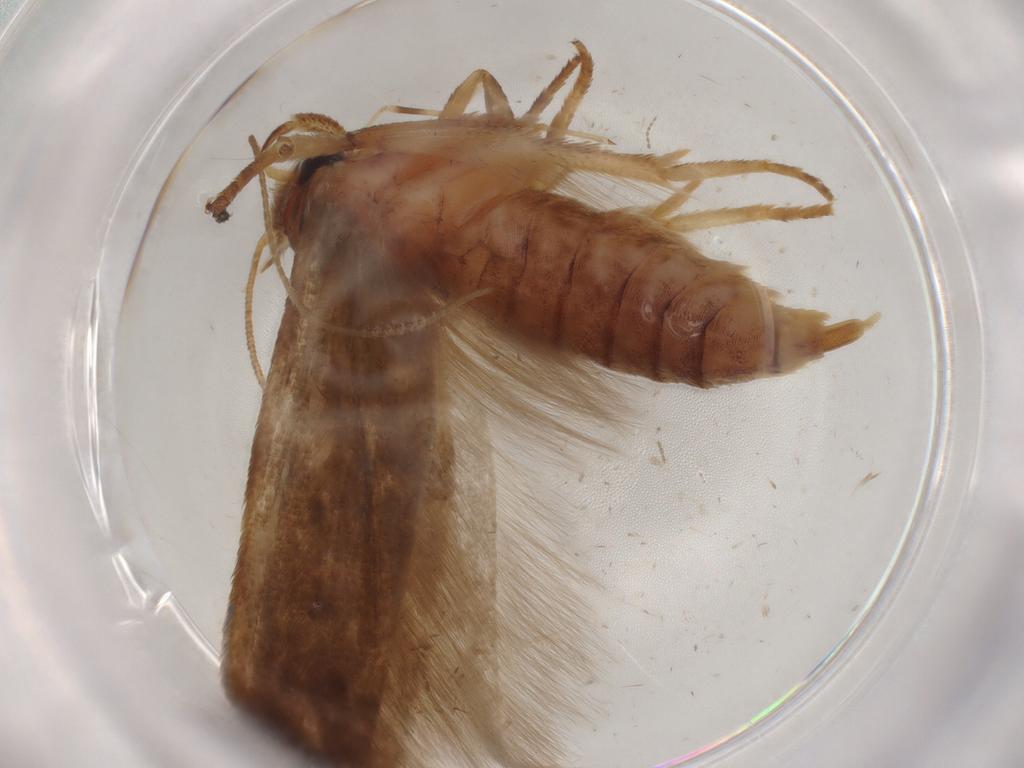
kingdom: Animalia
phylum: Arthropoda
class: Insecta
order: Lepidoptera
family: Blastobasidae
